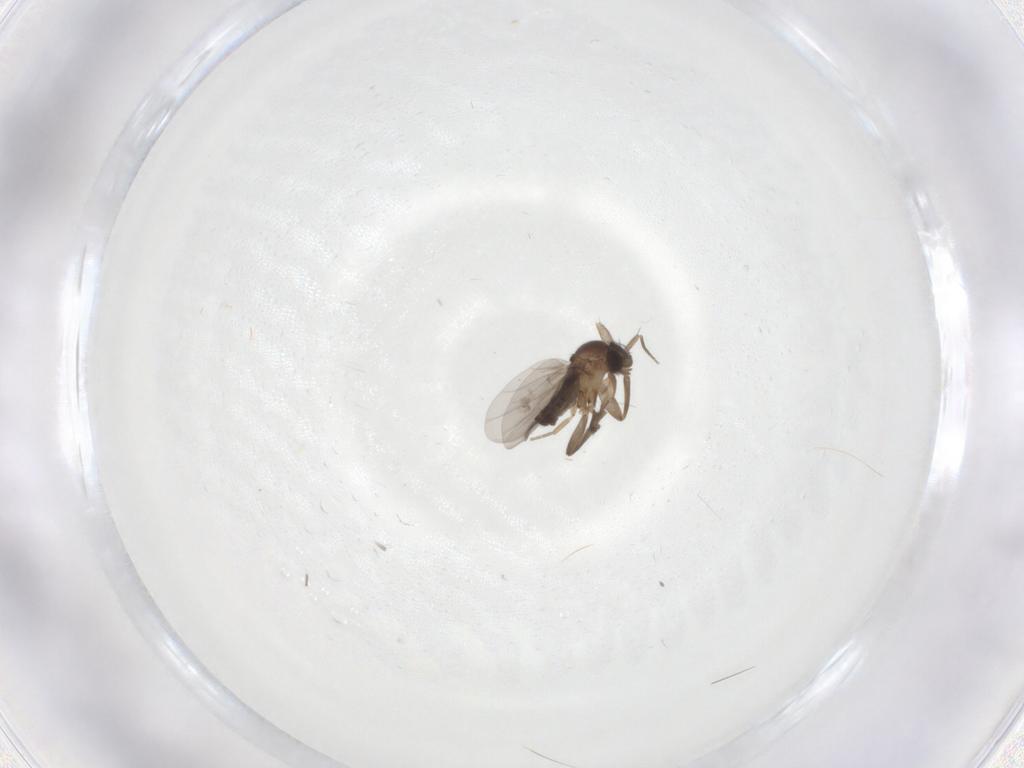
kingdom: Animalia
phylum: Arthropoda
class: Insecta
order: Diptera
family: Phoridae
